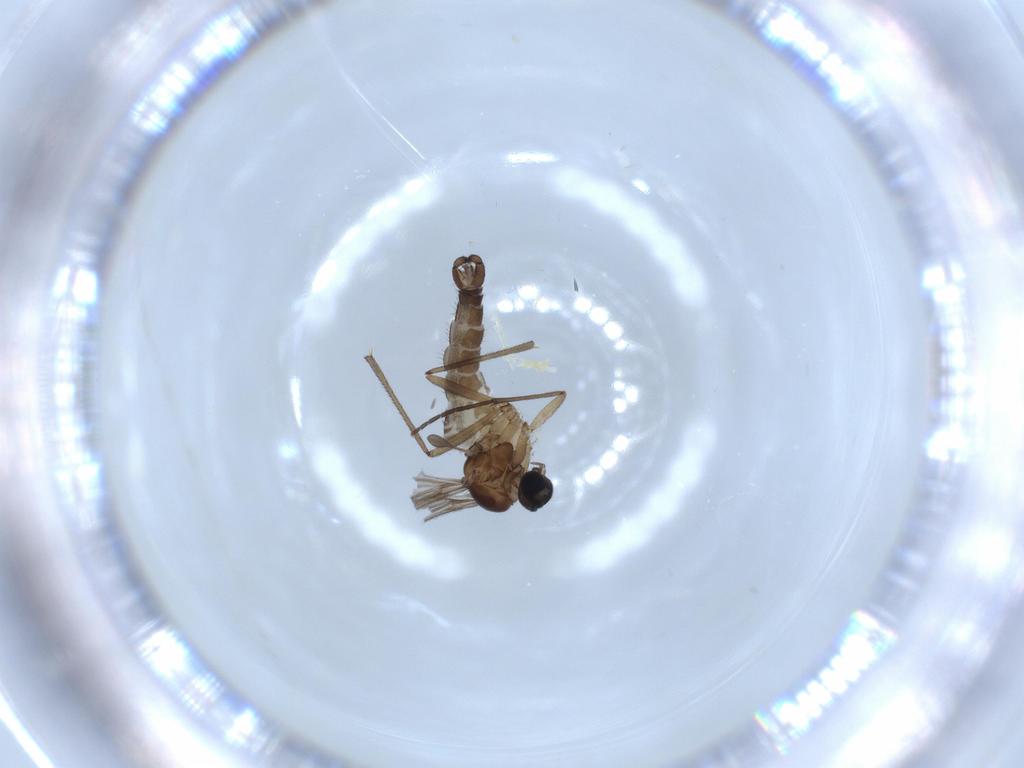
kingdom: Animalia
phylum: Arthropoda
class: Insecta
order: Diptera
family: Sciaridae
